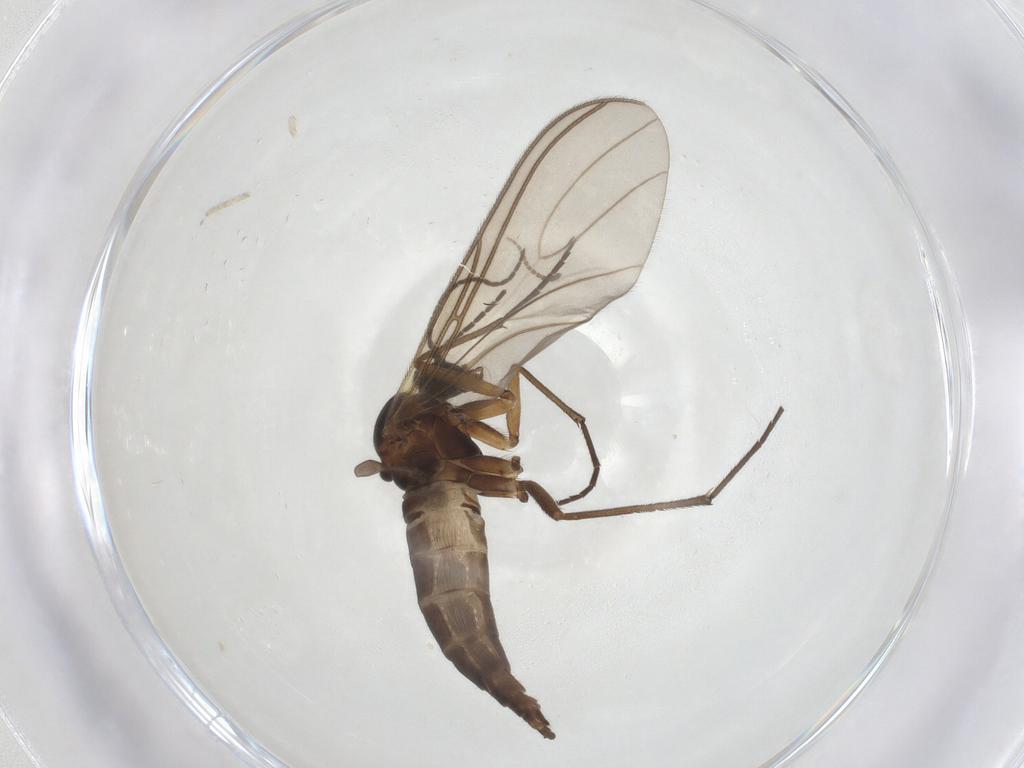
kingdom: Animalia
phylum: Arthropoda
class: Insecta
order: Diptera
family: Sciaridae
